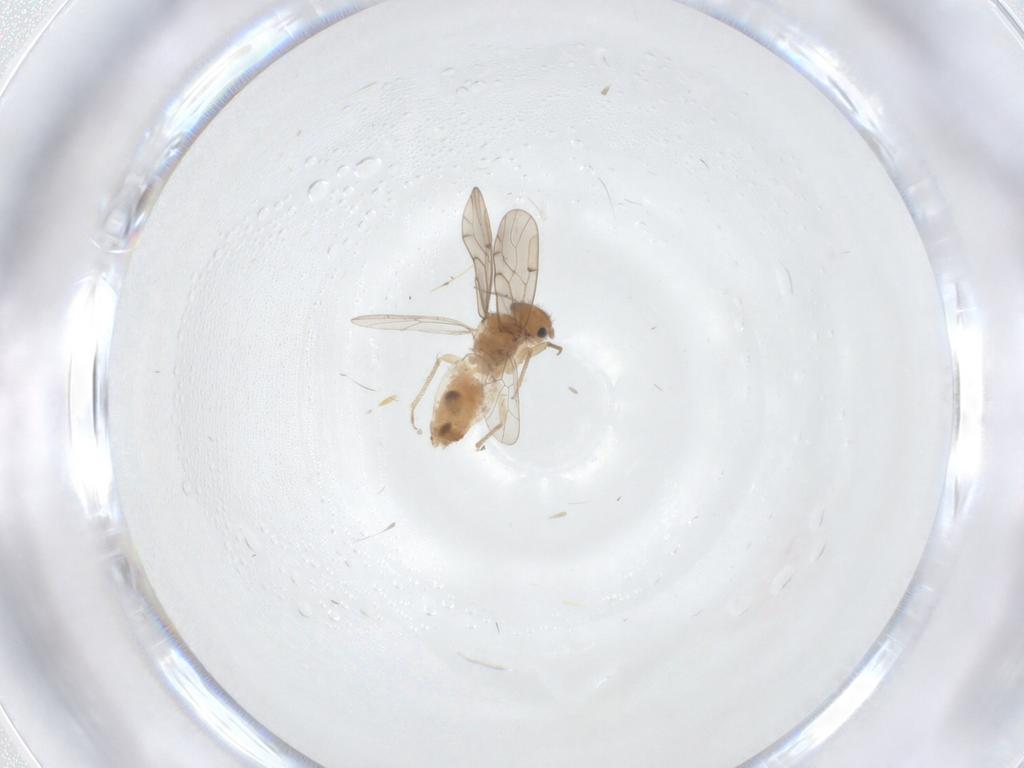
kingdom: Animalia
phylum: Arthropoda
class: Insecta
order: Psocodea
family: Ectopsocidae
